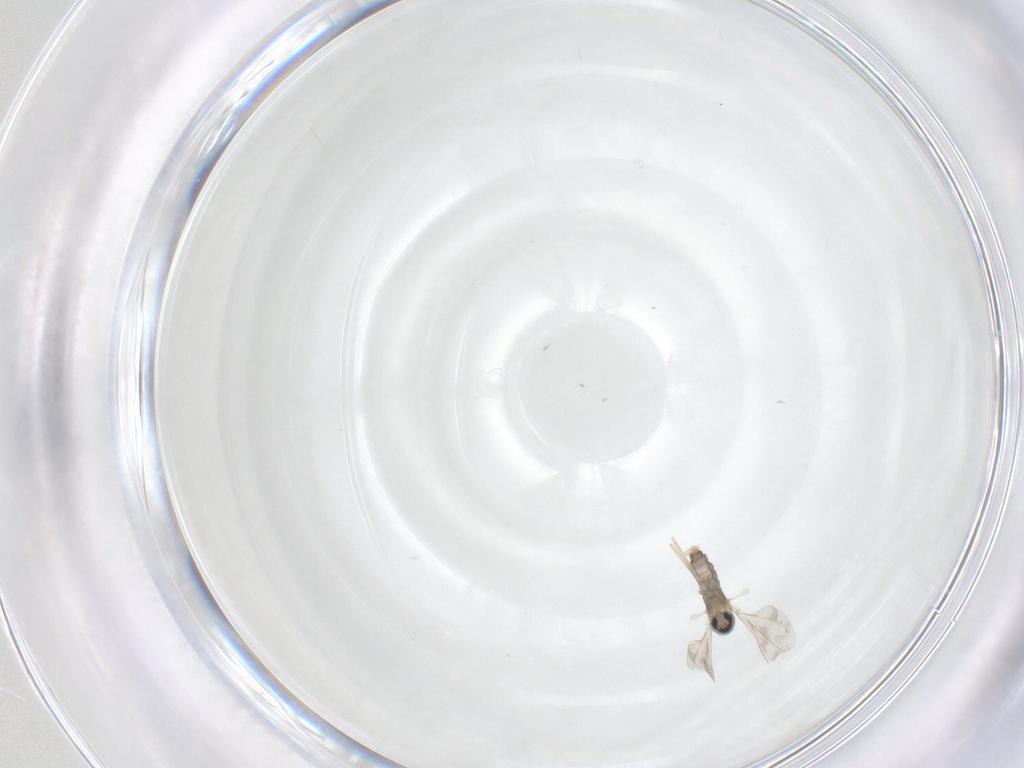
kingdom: Animalia
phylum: Arthropoda
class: Insecta
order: Diptera
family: Cecidomyiidae
